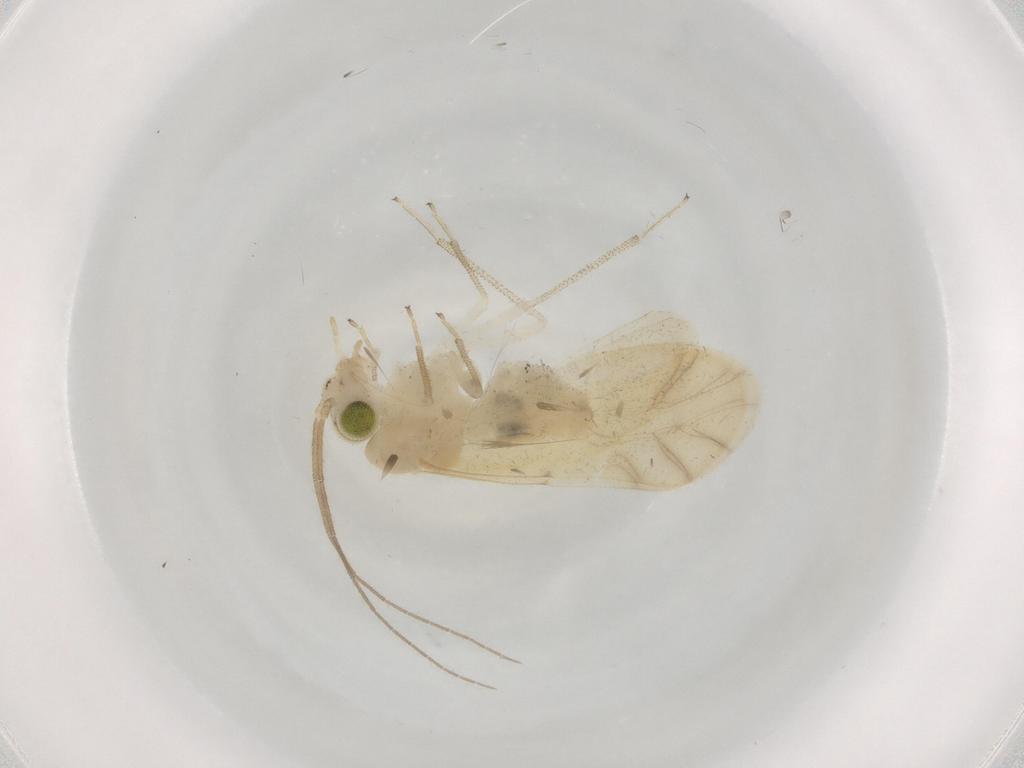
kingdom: Animalia
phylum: Arthropoda
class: Insecta
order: Psocodea
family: Caeciliusidae
